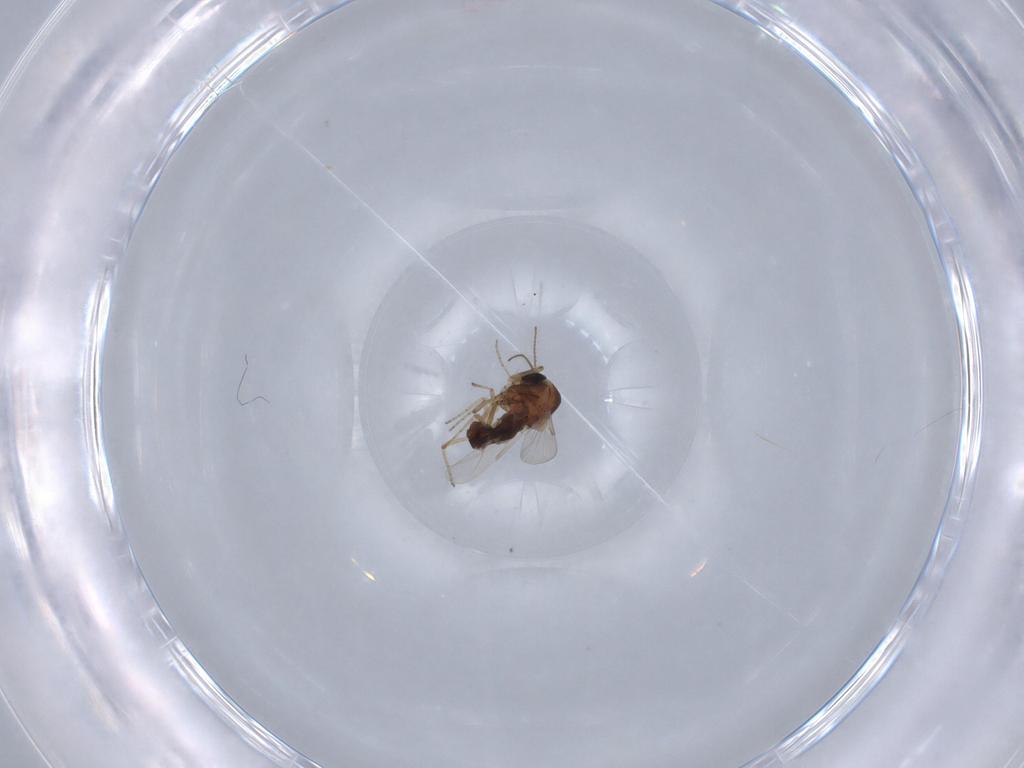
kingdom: Animalia
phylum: Arthropoda
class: Insecta
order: Diptera
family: Ceratopogonidae
